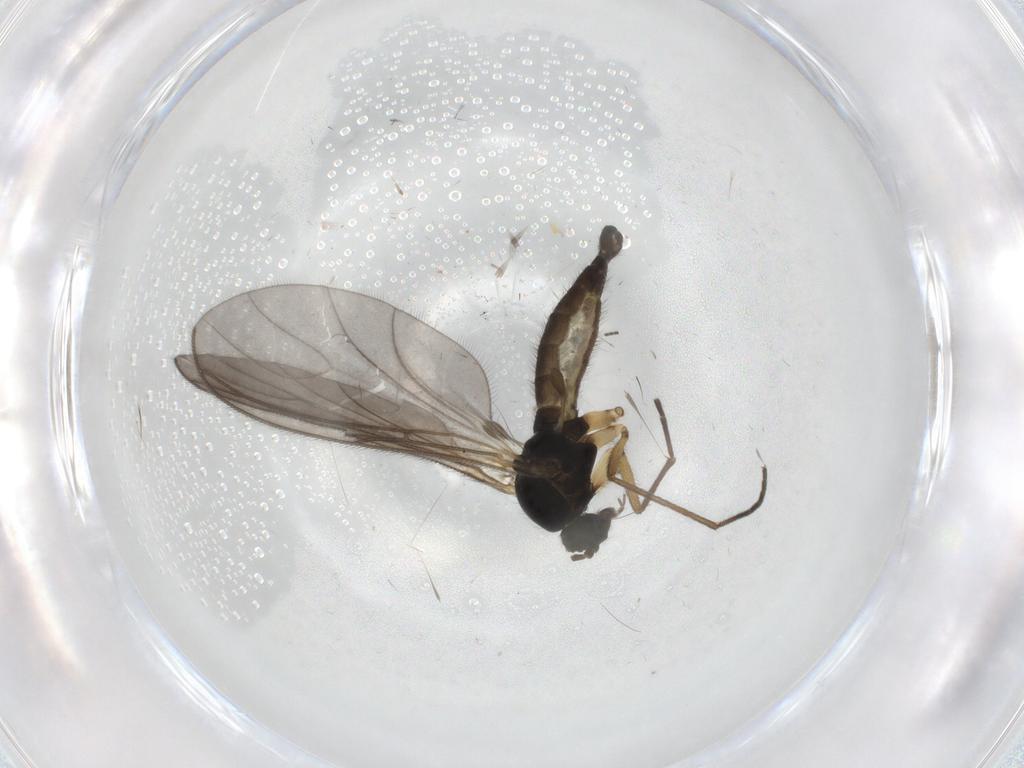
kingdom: Animalia
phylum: Arthropoda
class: Insecta
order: Diptera
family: Sciaridae
